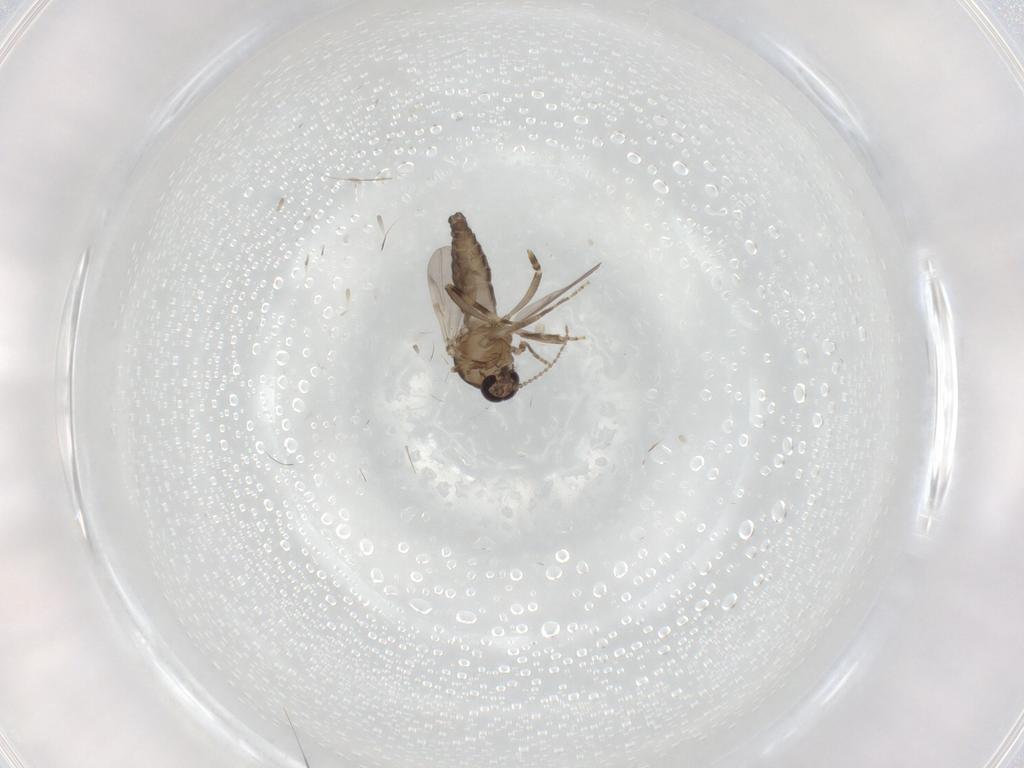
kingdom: Animalia
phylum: Arthropoda
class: Insecta
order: Diptera
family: Ceratopogonidae
